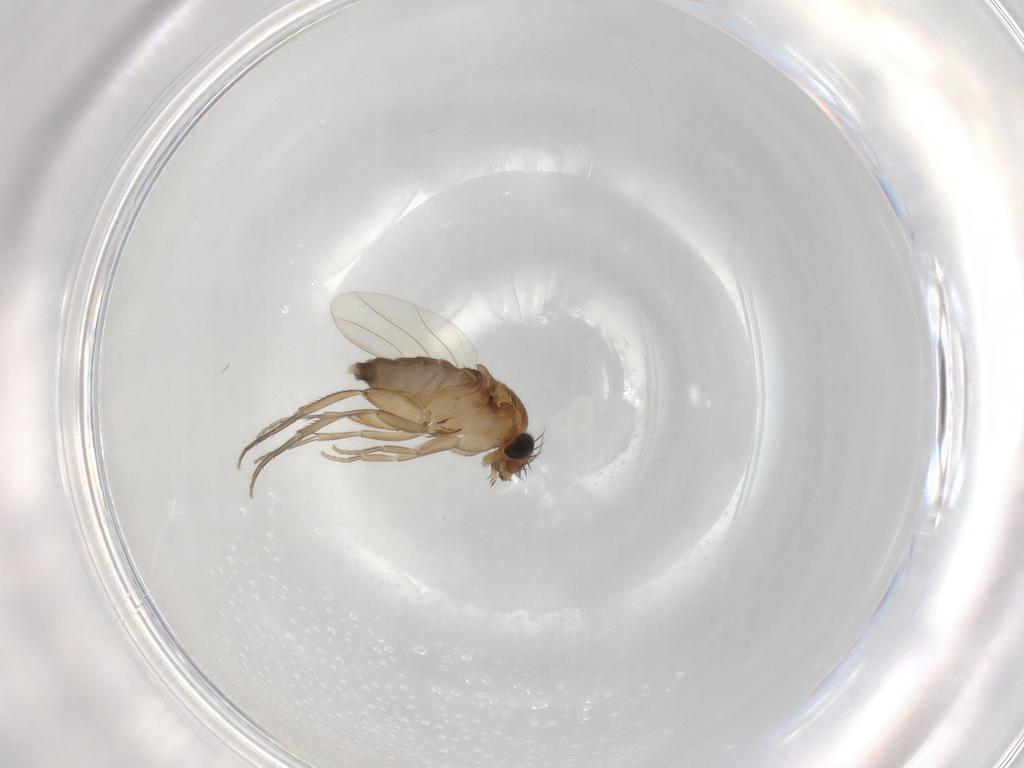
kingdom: Animalia
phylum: Arthropoda
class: Insecta
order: Diptera
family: Phoridae
